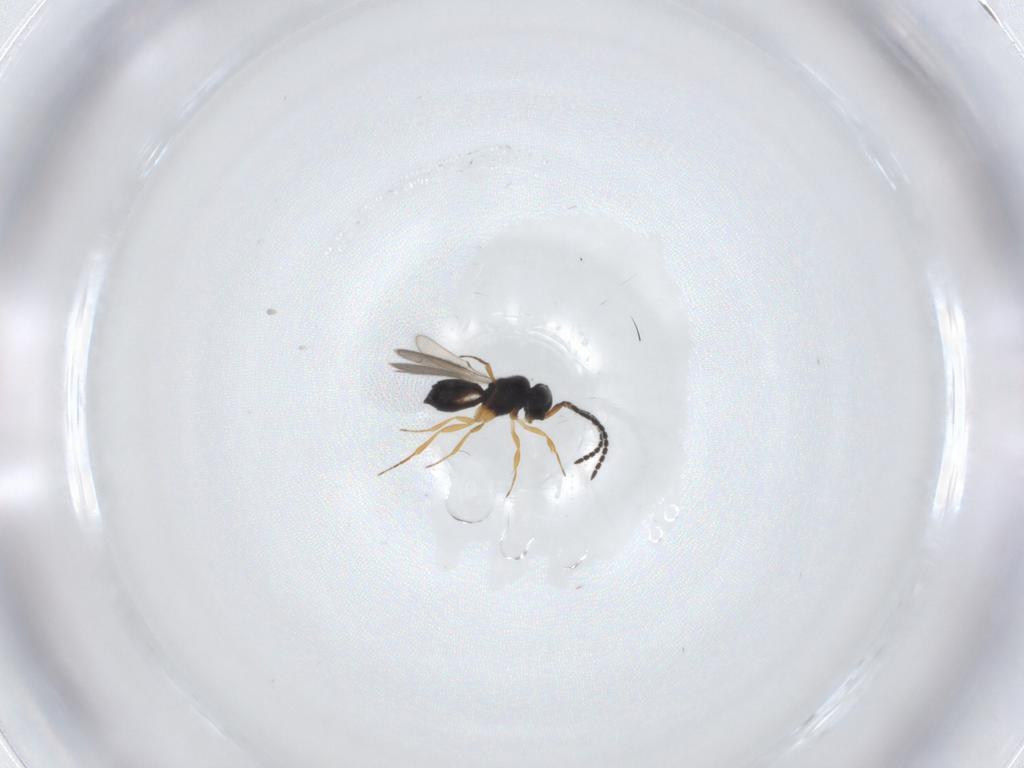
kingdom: Animalia
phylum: Arthropoda
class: Insecta
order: Hymenoptera
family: Scelionidae
